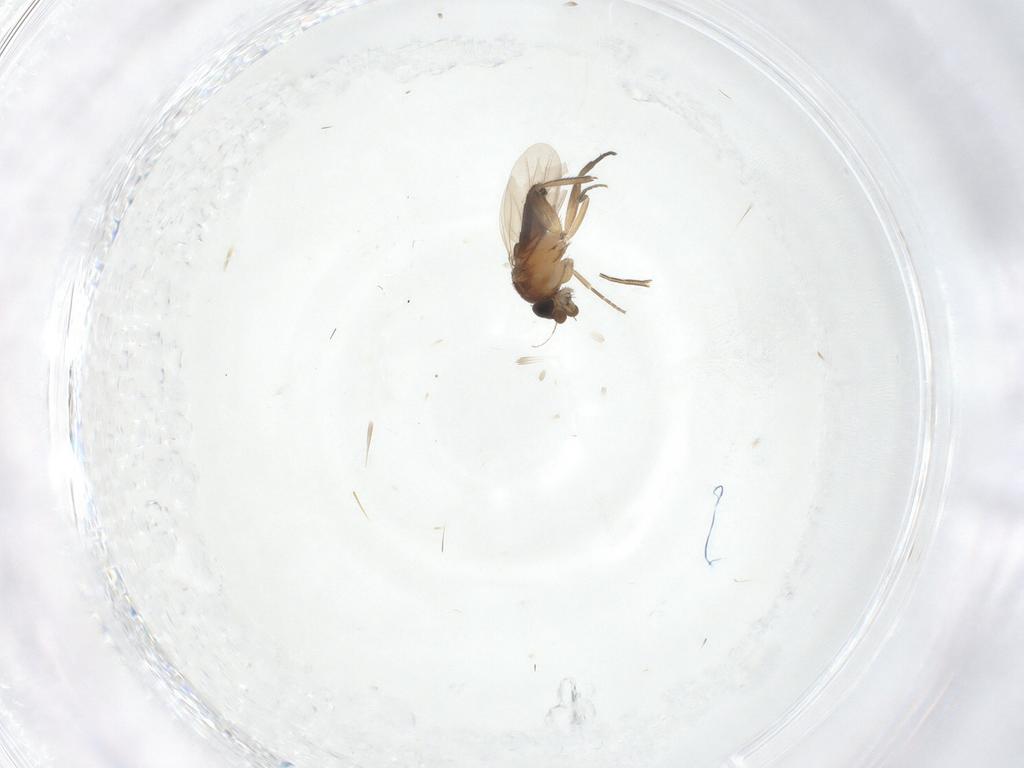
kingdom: Animalia
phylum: Arthropoda
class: Insecta
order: Diptera
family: Phoridae
